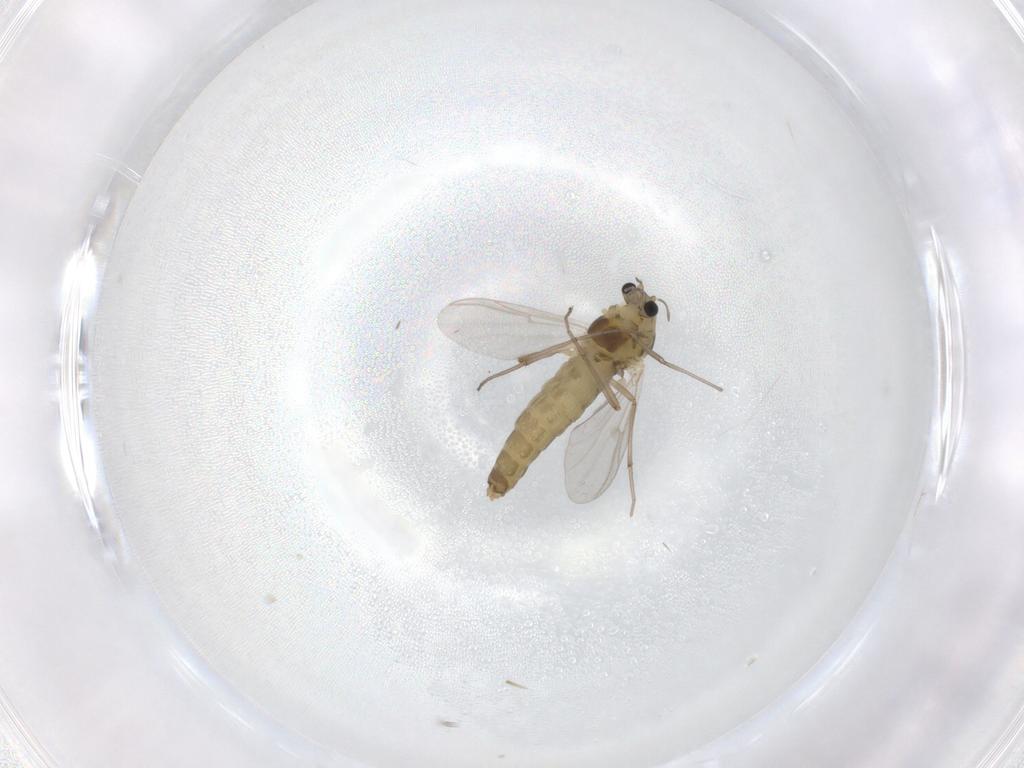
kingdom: Animalia
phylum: Arthropoda
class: Insecta
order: Diptera
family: Chironomidae
